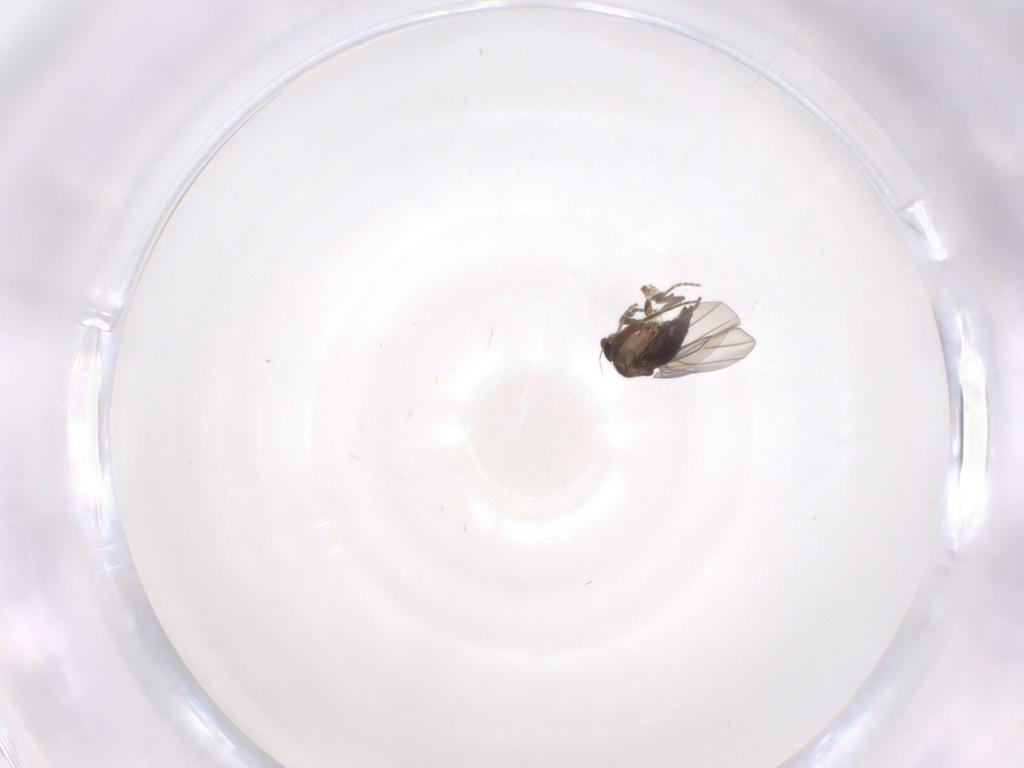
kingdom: Animalia
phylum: Arthropoda
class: Insecta
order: Diptera
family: Phoridae
